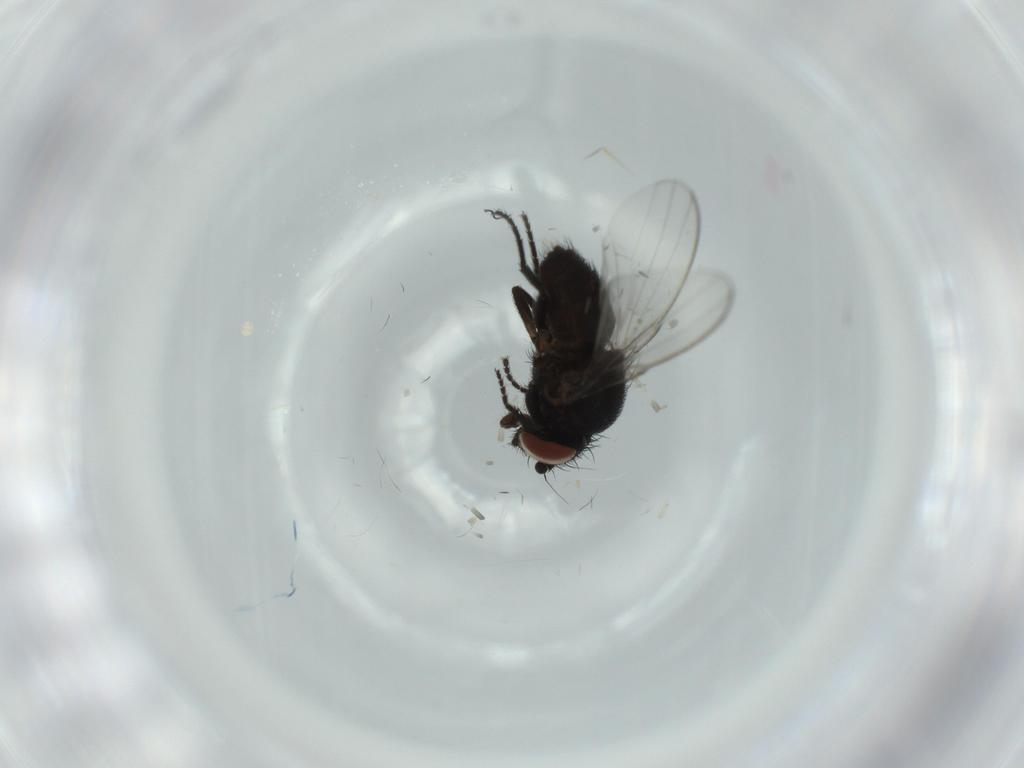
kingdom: Animalia
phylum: Arthropoda
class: Insecta
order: Diptera
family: Milichiidae
